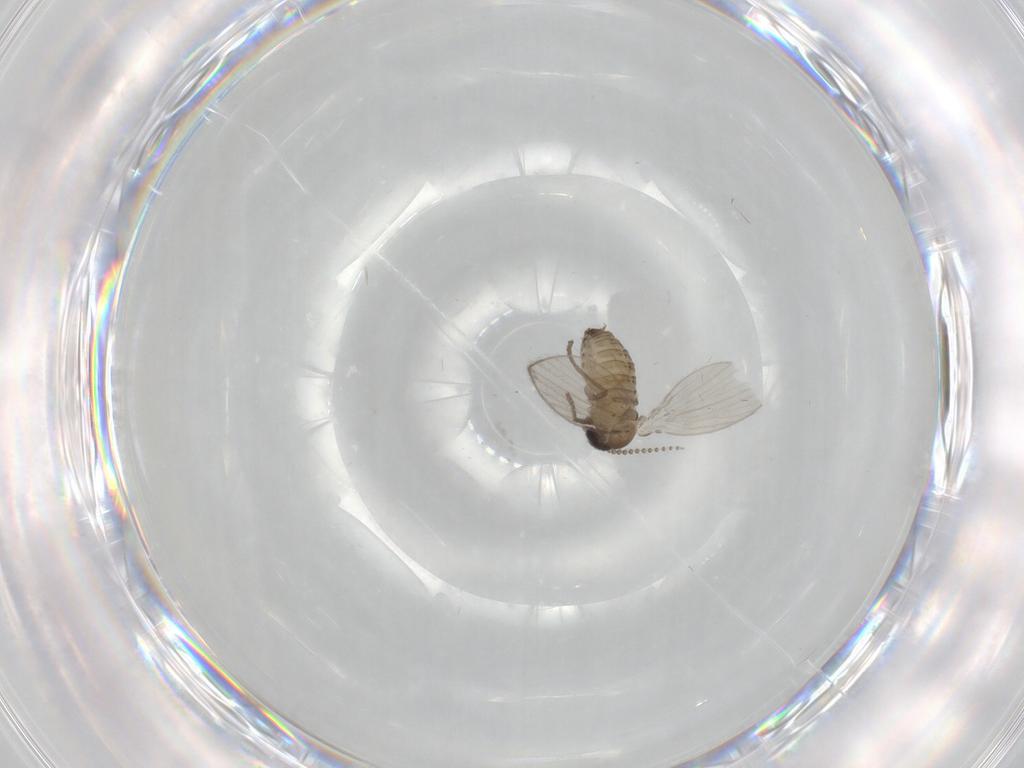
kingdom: Animalia
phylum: Arthropoda
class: Insecta
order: Diptera
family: Psychodidae
